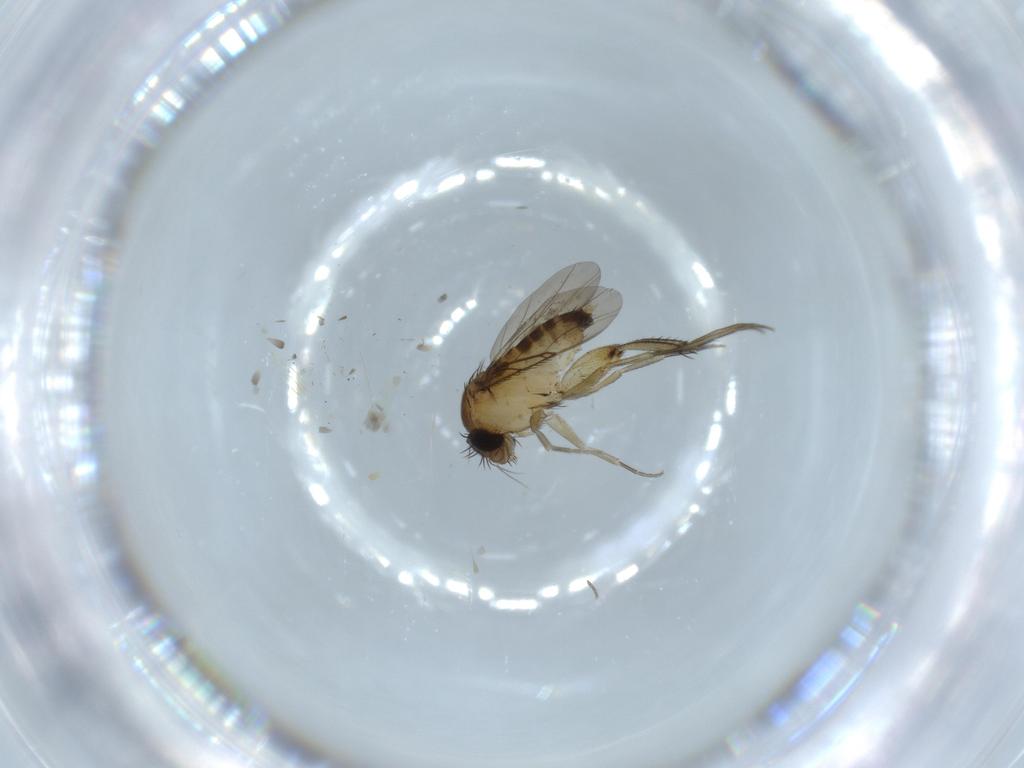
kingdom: Animalia
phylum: Arthropoda
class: Insecta
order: Diptera
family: Phoridae
